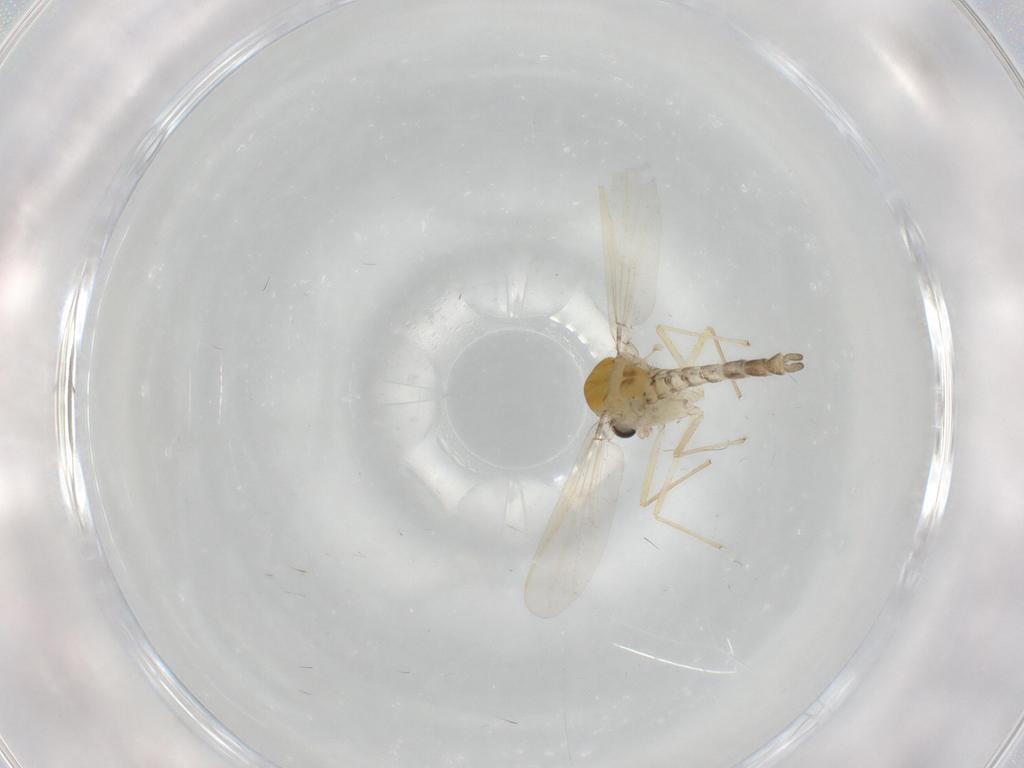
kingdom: Animalia
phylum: Arthropoda
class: Insecta
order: Diptera
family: Chironomidae
